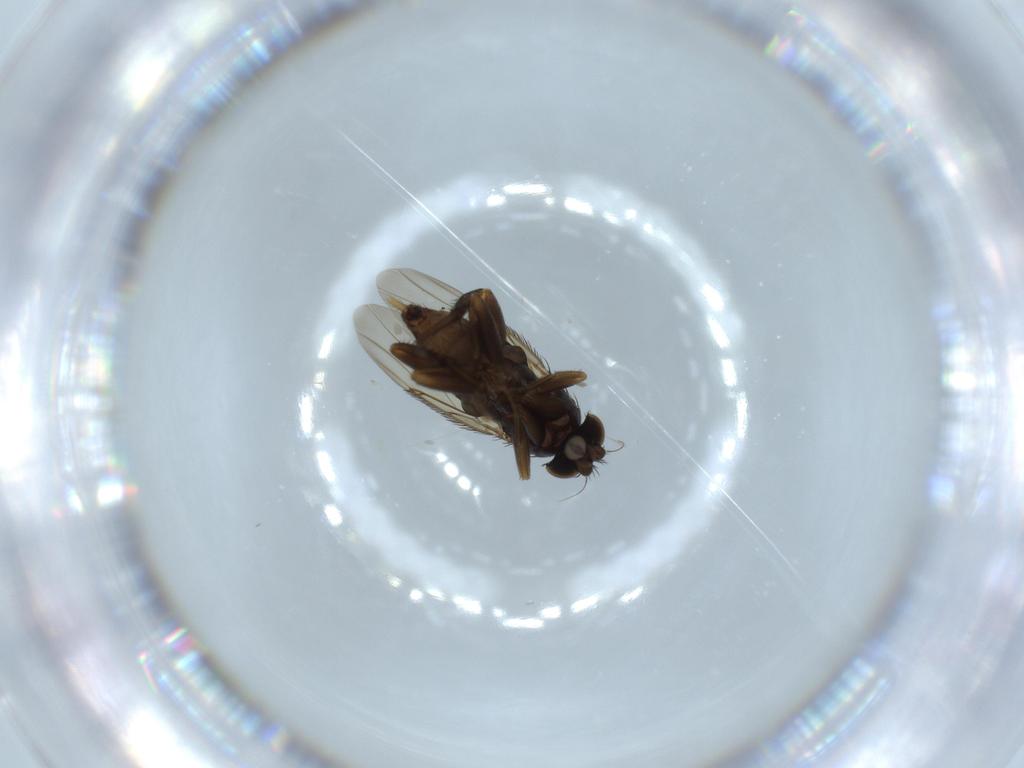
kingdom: Animalia
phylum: Arthropoda
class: Insecta
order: Diptera
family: Phoridae
